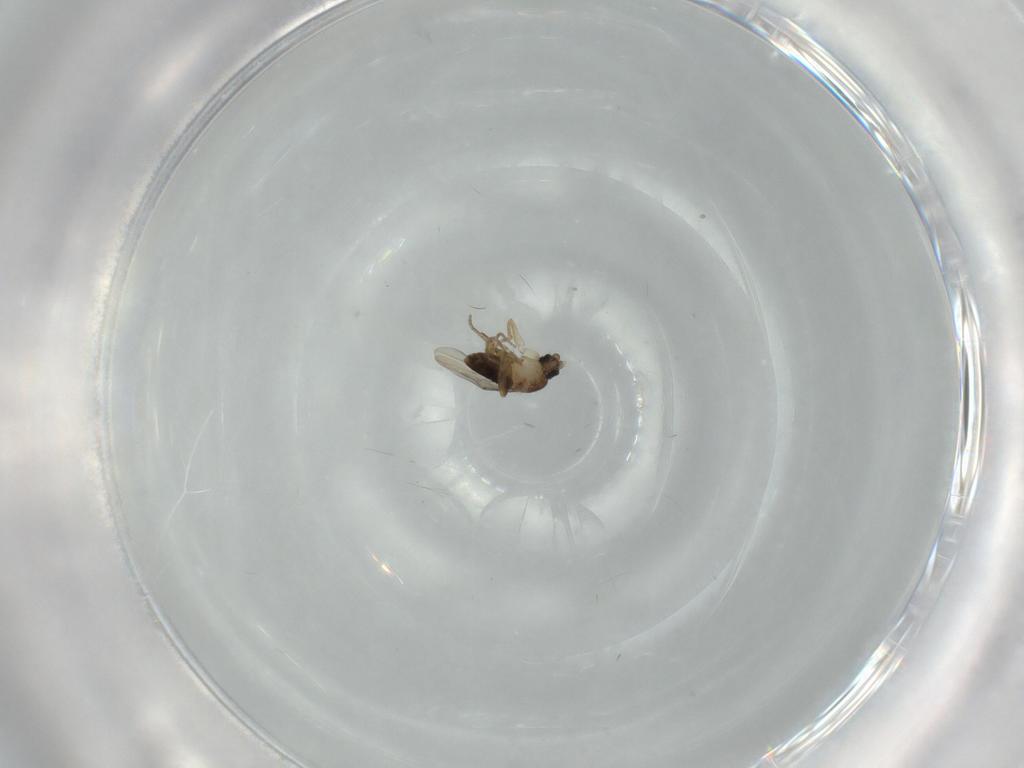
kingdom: Animalia
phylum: Arthropoda
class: Insecta
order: Diptera
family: Phoridae
